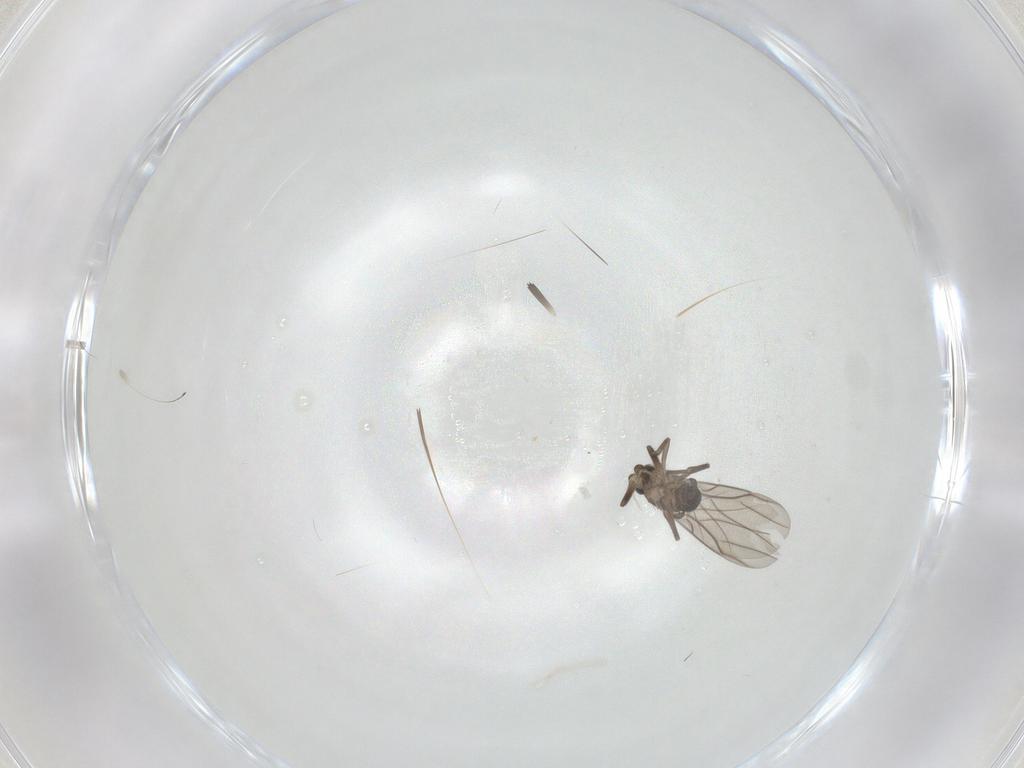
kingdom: Animalia
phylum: Arthropoda
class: Insecta
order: Diptera
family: Phoridae
